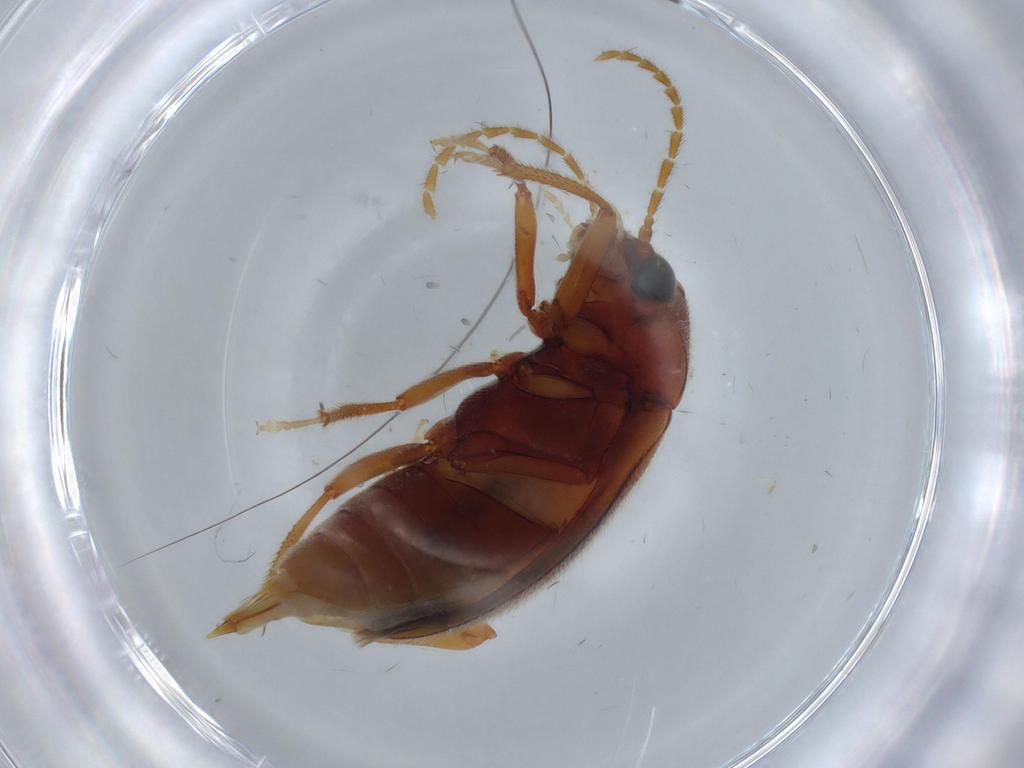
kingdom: Animalia
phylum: Arthropoda
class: Insecta
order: Coleoptera
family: Ptilodactylidae
